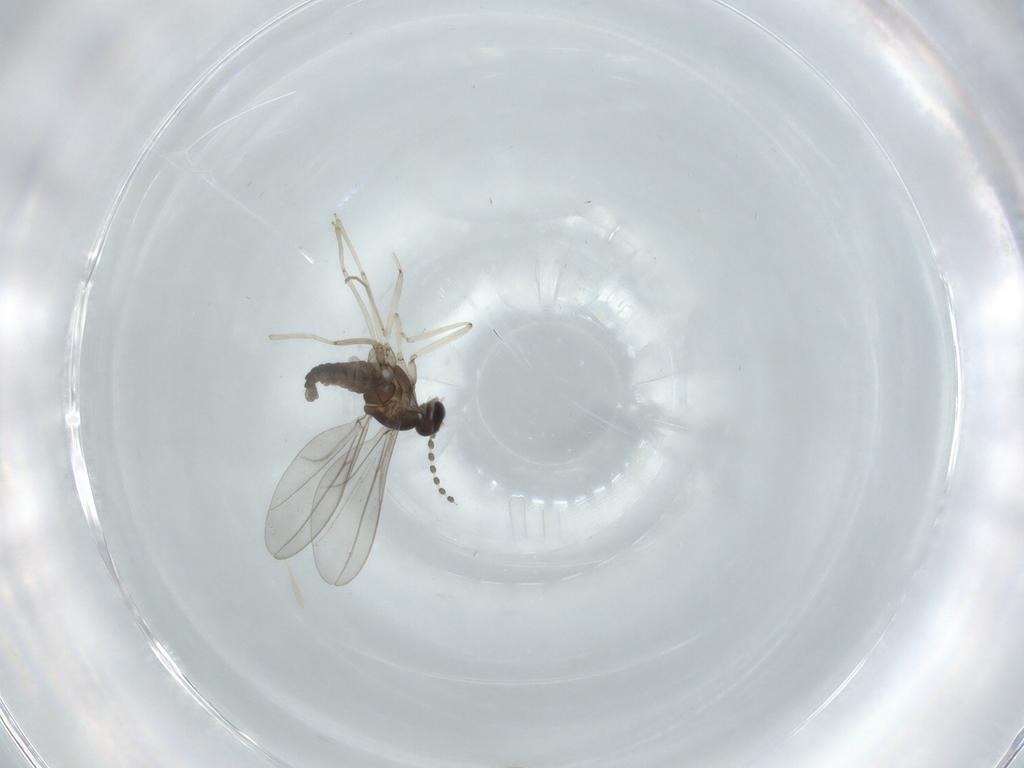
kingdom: Animalia
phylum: Arthropoda
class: Insecta
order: Diptera
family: Cecidomyiidae
